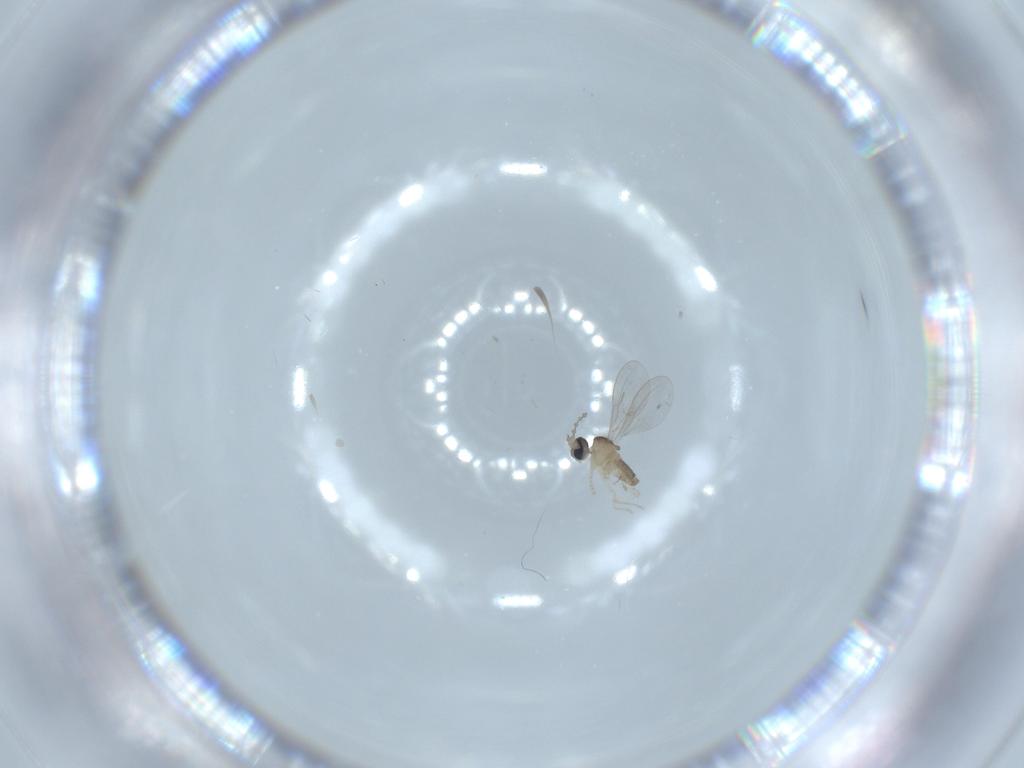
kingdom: Animalia
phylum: Arthropoda
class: Insecta
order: Diptera
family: Cecidomyiidae
